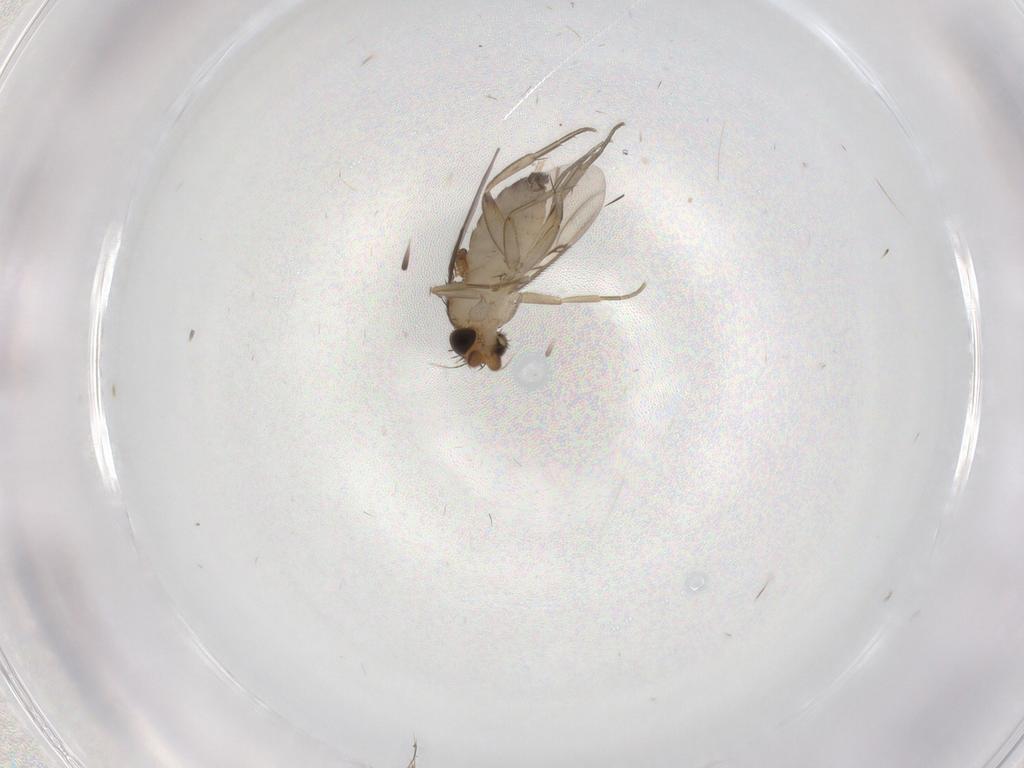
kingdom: Animalia
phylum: Arthropoda
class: Insecta
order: Diptera
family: Phoridae
